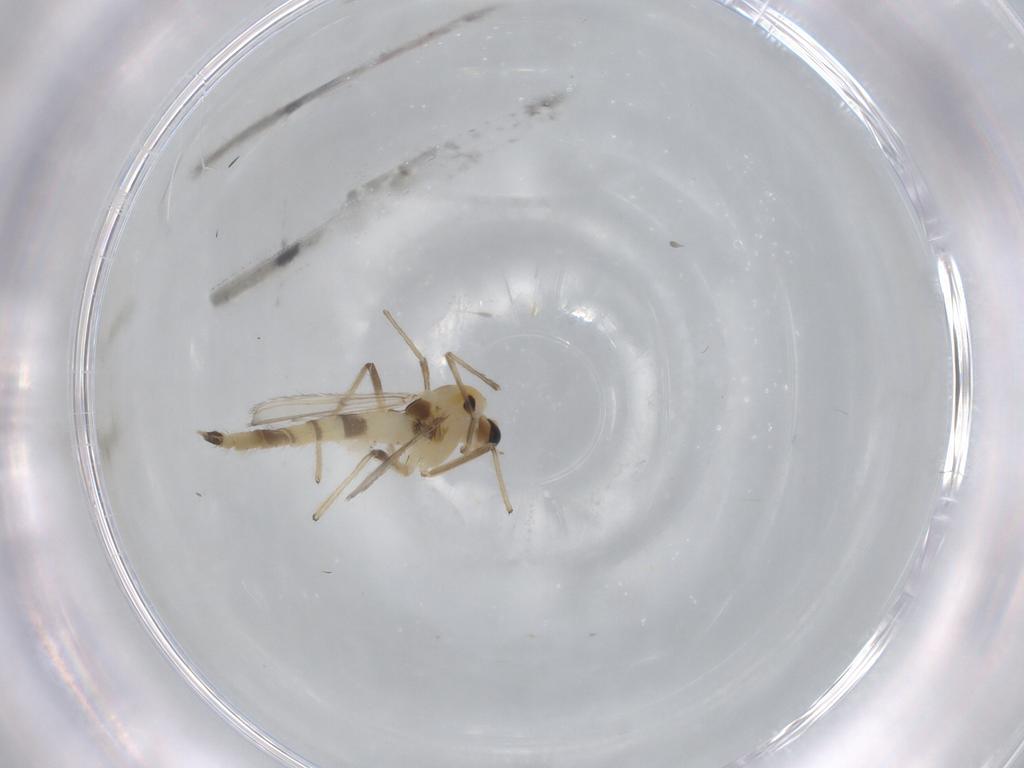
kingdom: Animalia
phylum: Arthropoda
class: Insecta
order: Diptera
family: Chironomidae
